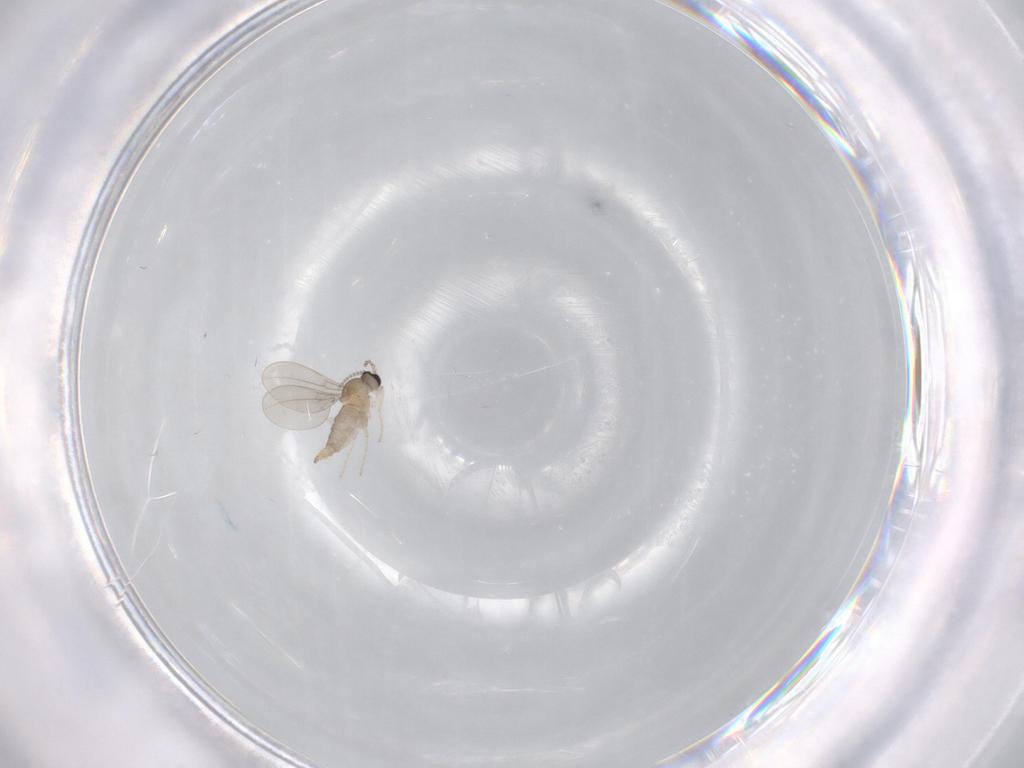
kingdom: Animalia
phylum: Arthropoda
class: Insecta
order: Diptera
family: Cecidomyiidae
